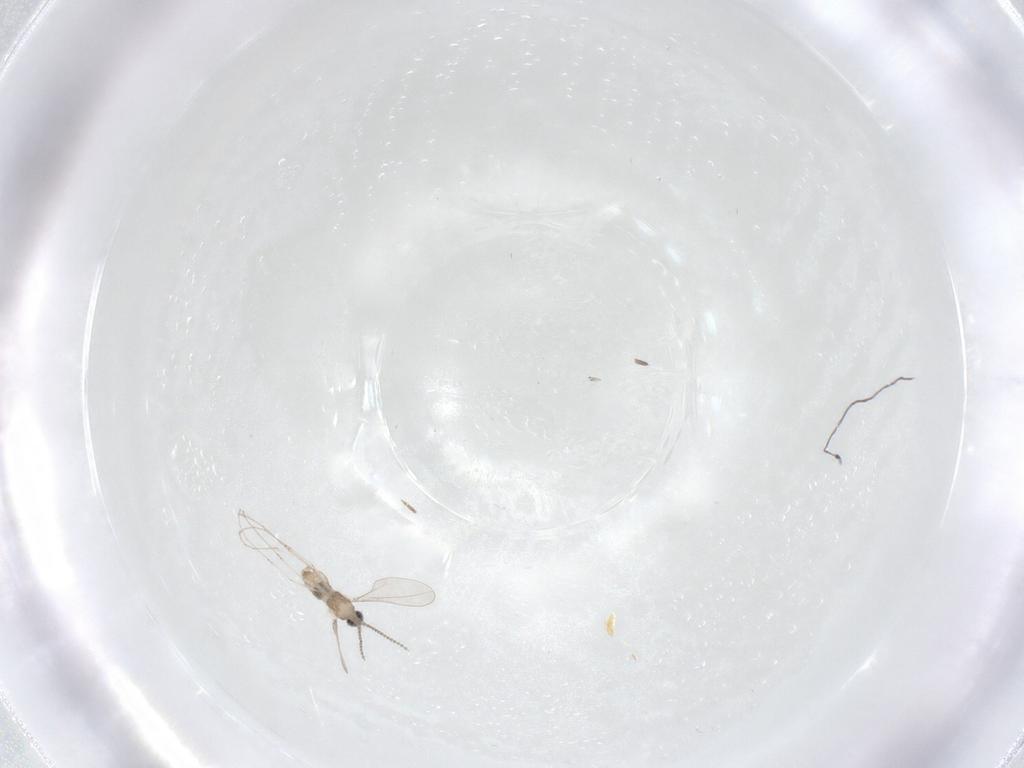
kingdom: Animalia
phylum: Arthropoda
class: Insecta
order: Diptera
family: Cecidomyiidae
